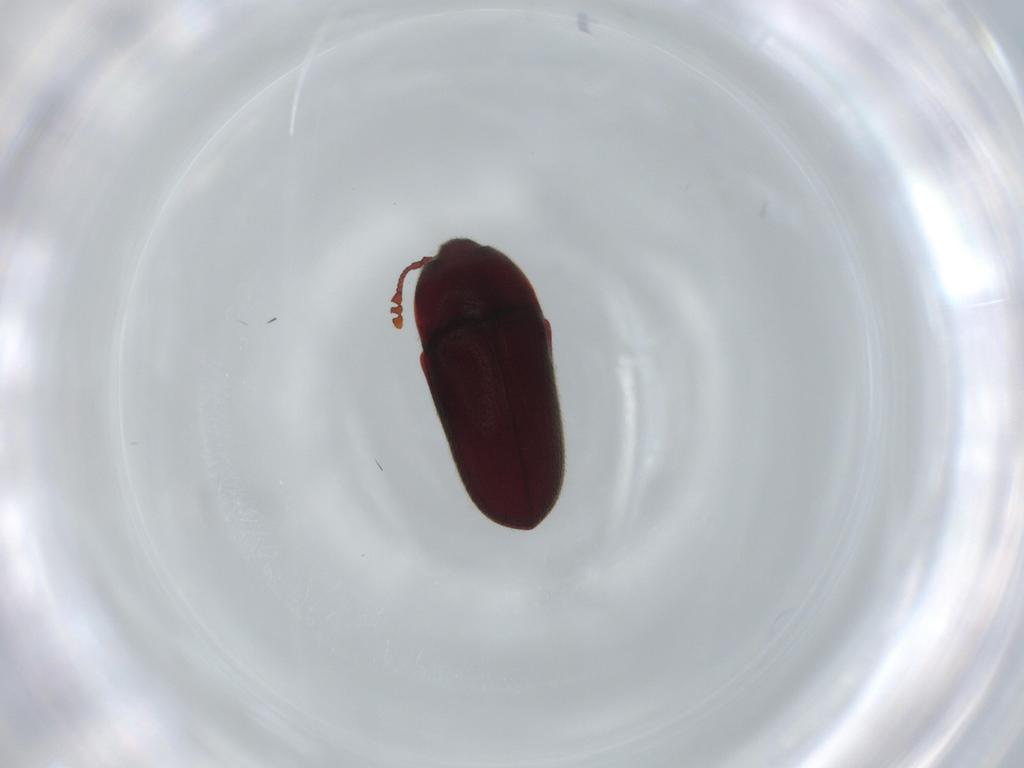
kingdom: Animalia
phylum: Arthropoda
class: Insecta
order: Coleoptera
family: Throscidae
